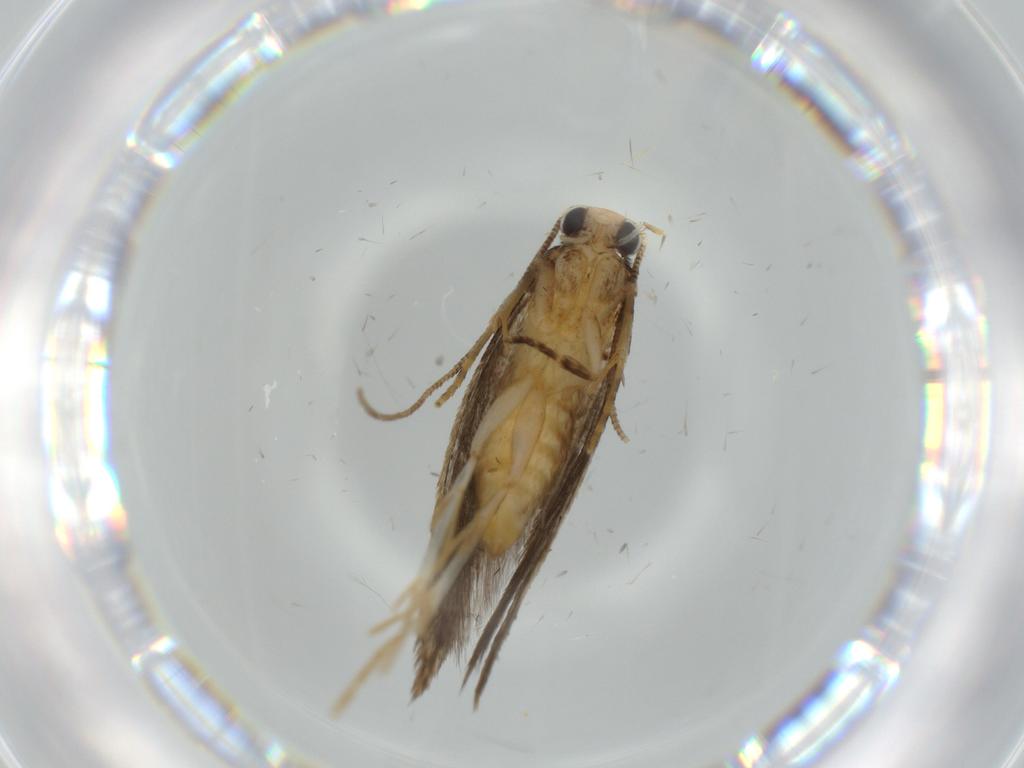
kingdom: Animalia
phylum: Arthropoda
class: Insecta
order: Lepidoptera
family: Tineidae
